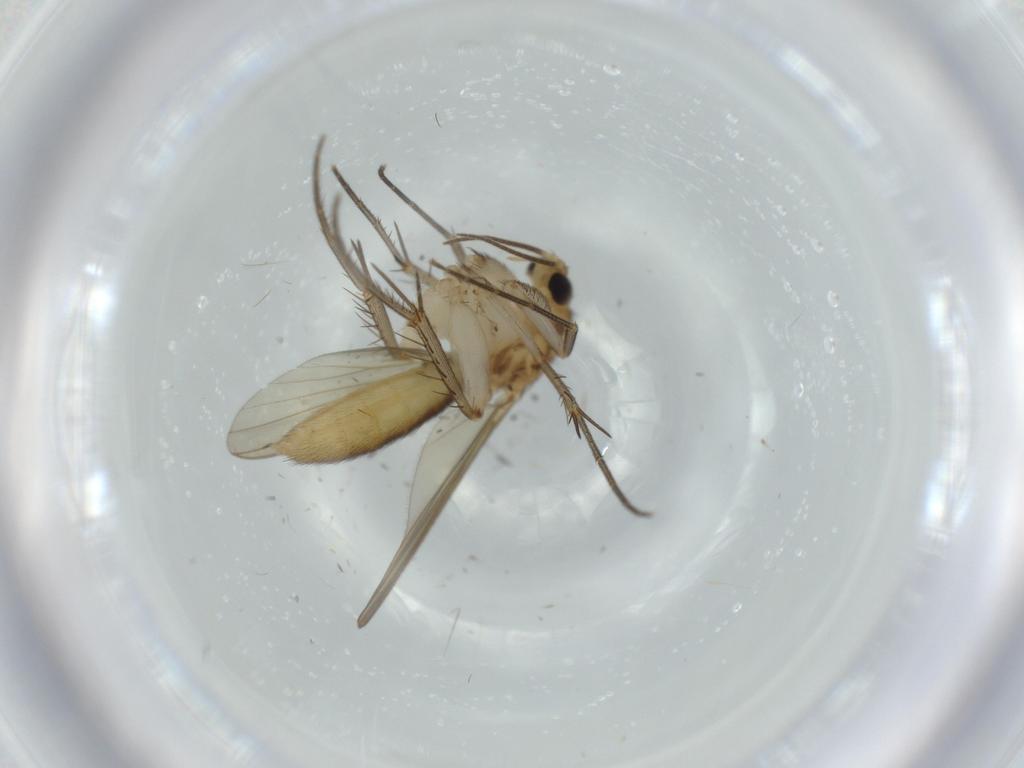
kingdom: Animalia
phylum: Arthropoda
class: Insecta
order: Diptera
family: Mycetophilidae
